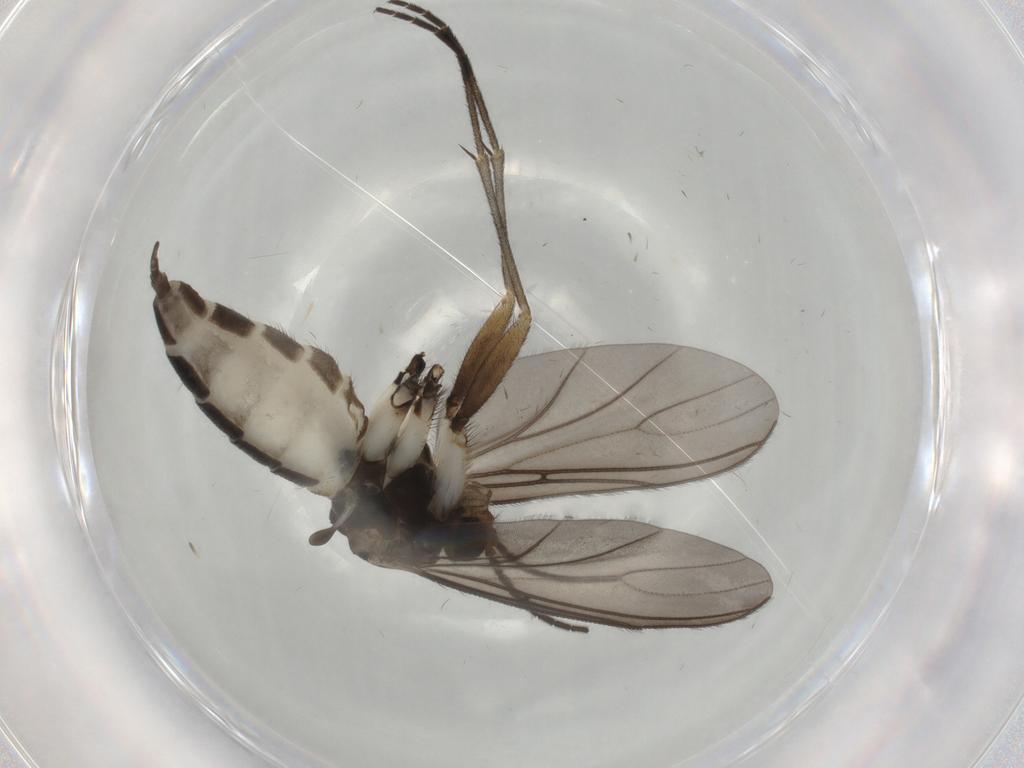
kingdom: Animalia
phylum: Arthropoda
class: Insecta
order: Diptera
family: Sciaridae
